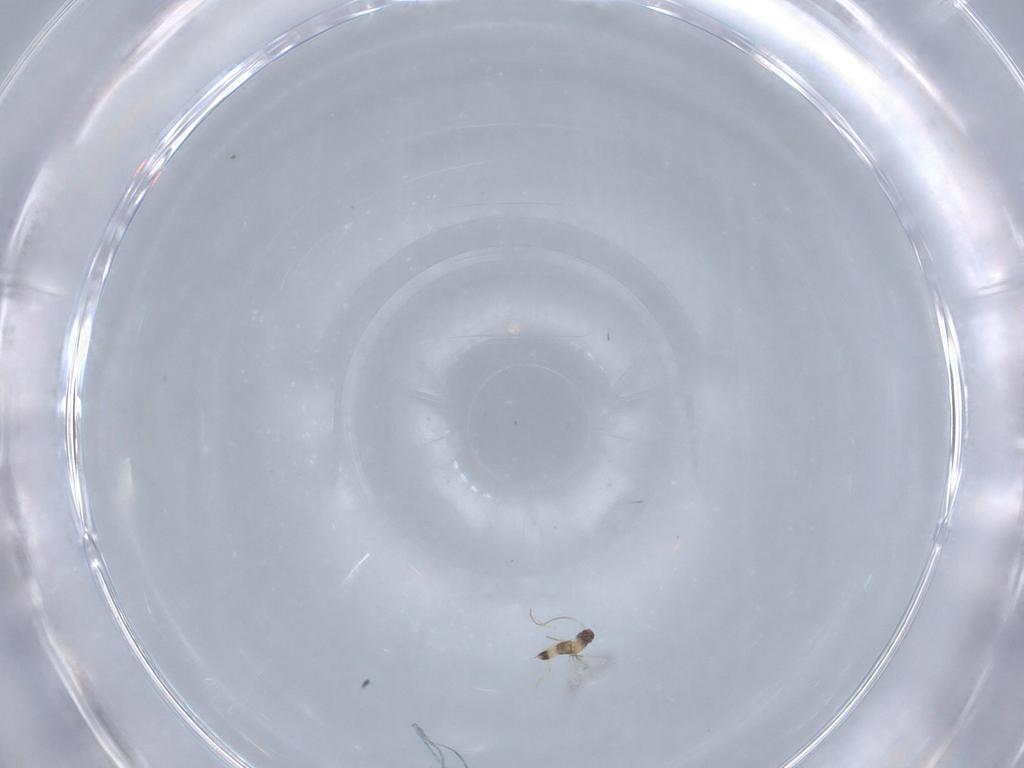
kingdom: Animalia
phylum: Arthropoda
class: Insecta
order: Hymenoptera
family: Mymaridae
